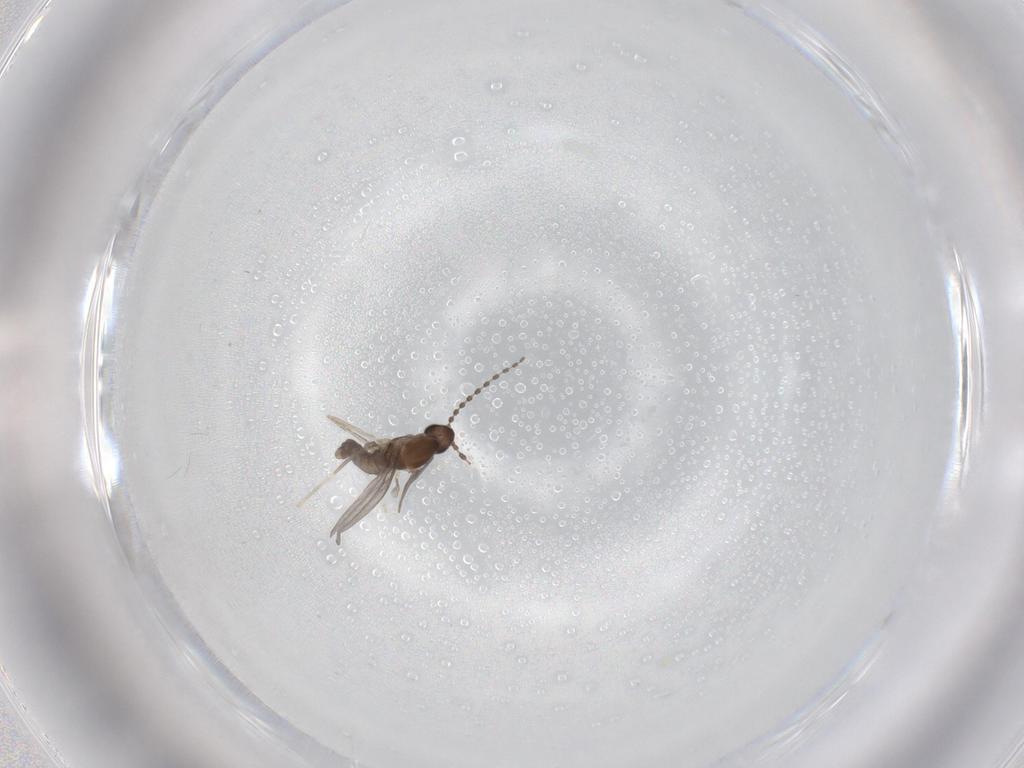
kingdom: Animalia
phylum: Arthropoda
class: Insecta
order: Diptera
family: Cecidomyiidae
